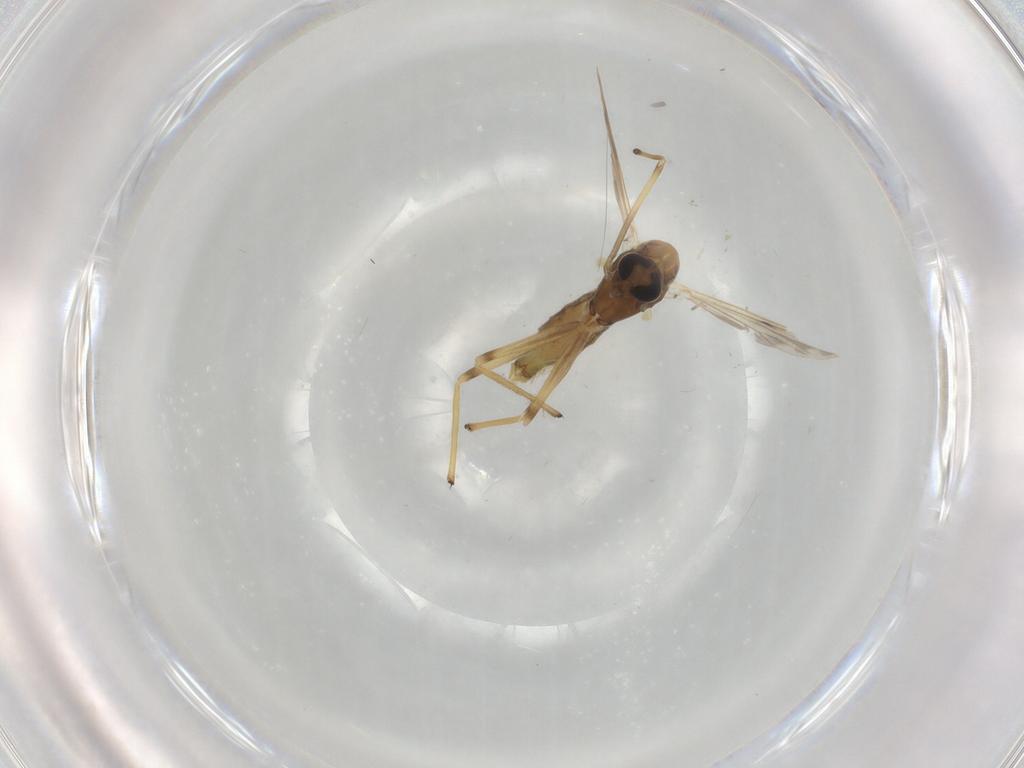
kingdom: Animalia
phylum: Arthropoda
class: Insecta
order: Diptera
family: Chironomidae
